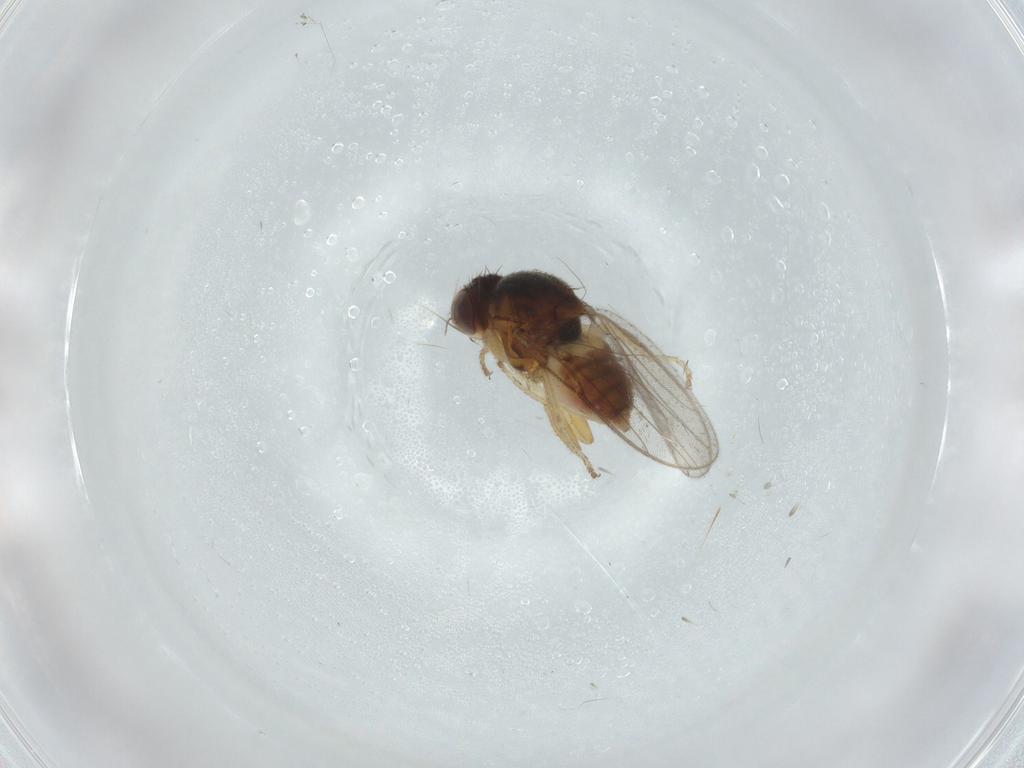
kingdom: Animalia
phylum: Arthropoda
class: Insecta
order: Diptera
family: Chloropidae
